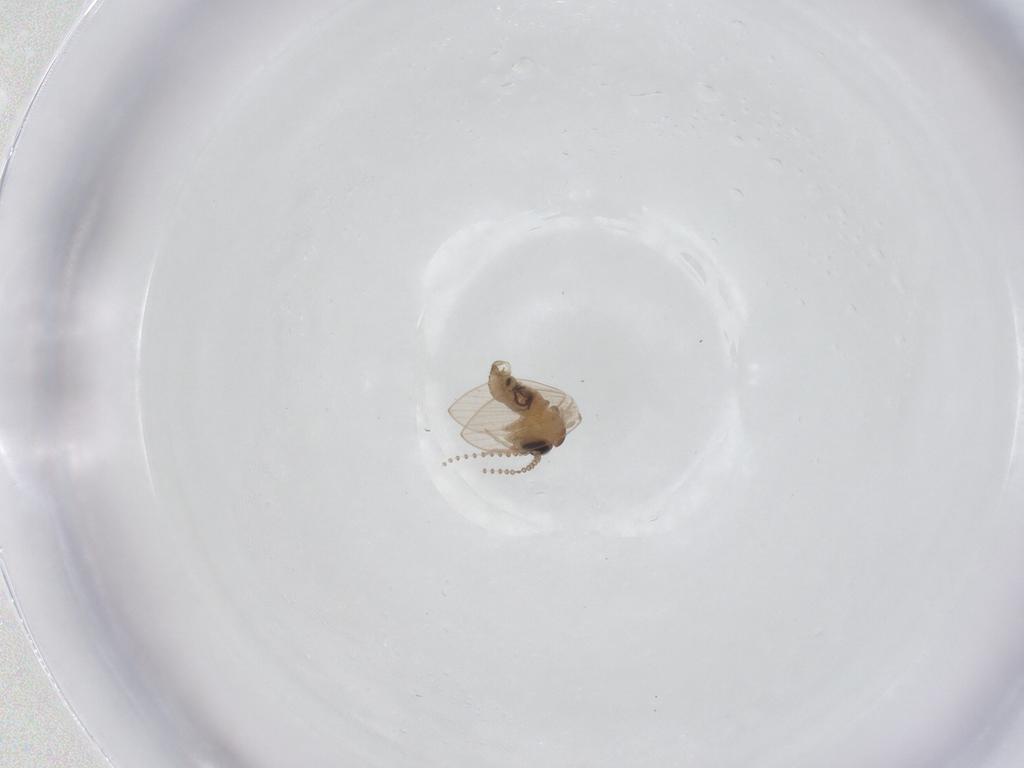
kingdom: Animalia
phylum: Arthropoda
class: Insecta
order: Diptera
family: Psychodidae
